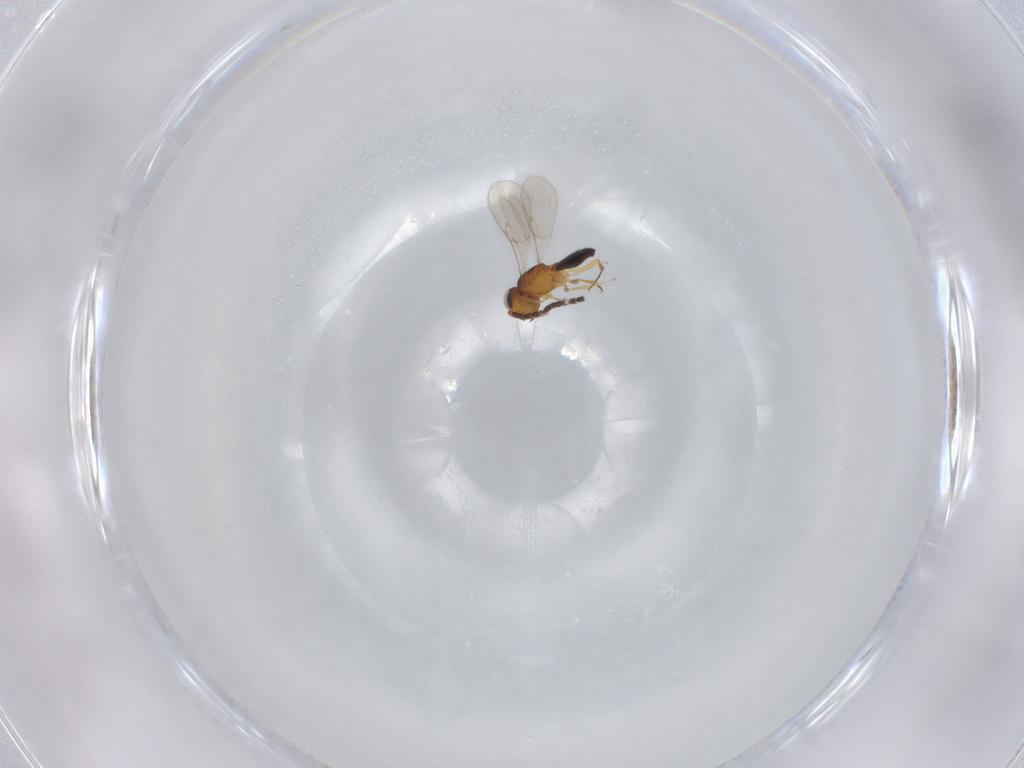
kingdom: Animalia
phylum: Arthropoda
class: Insecta
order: Hymenoptera
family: Scelionidae
